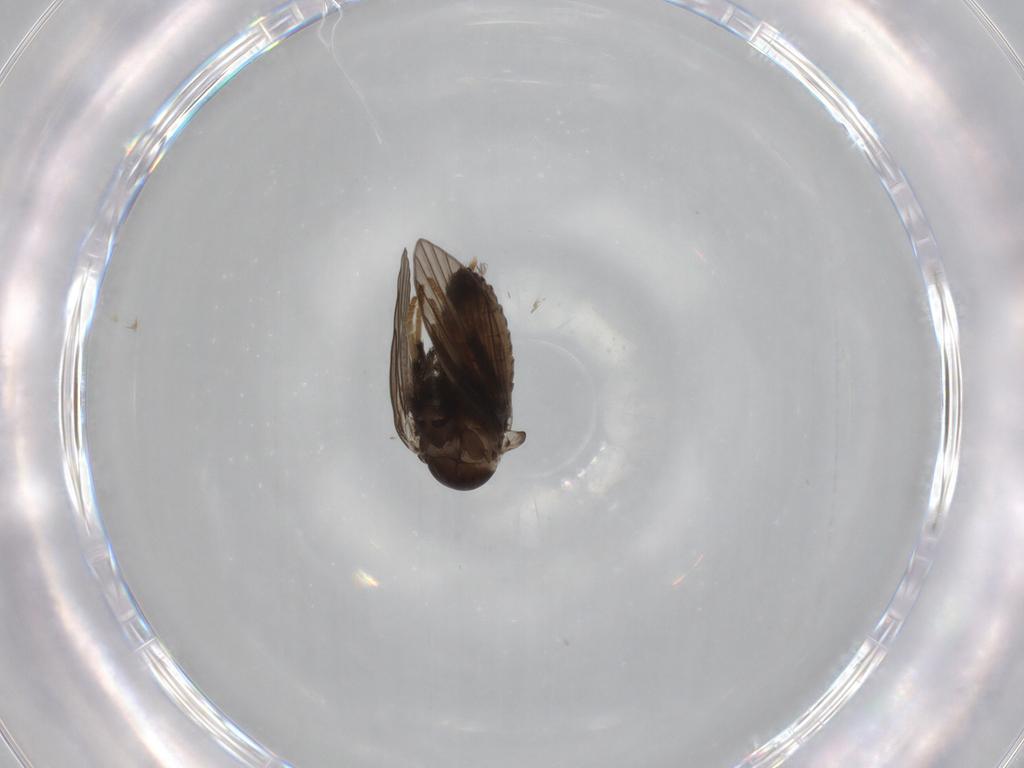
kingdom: Animalia
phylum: Arthropoda
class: Insecta
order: Diptera
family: Psychodidae
